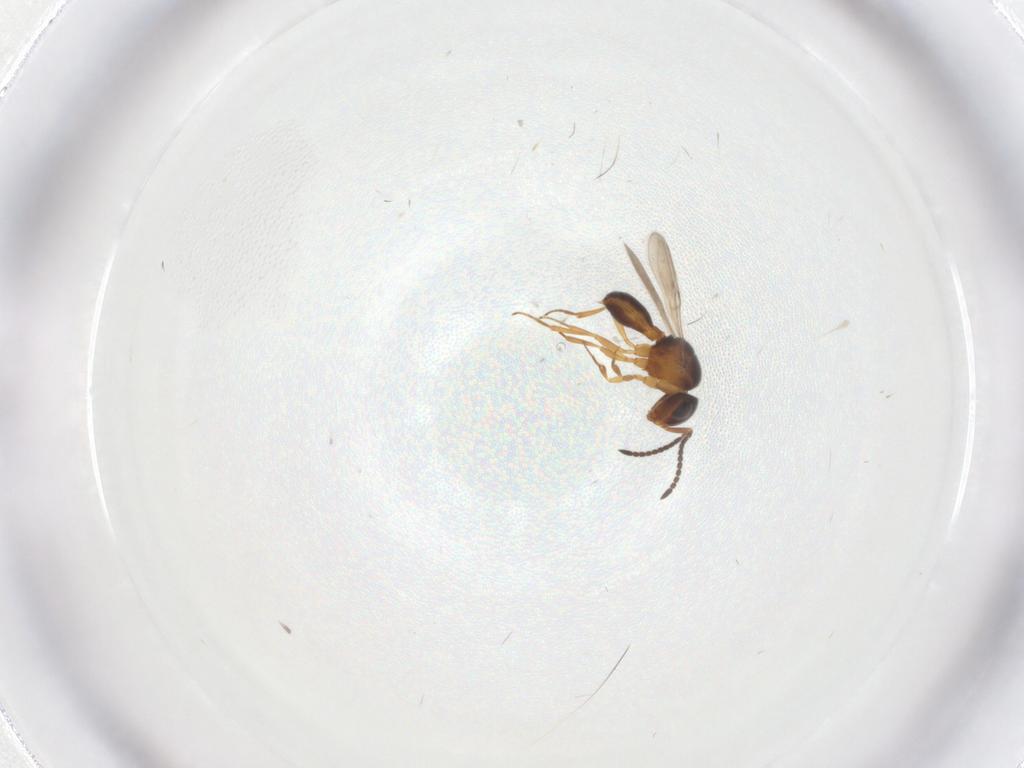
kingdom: Animalia
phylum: Arthropoda
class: Insecta
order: Hymenoptera
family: Scelionidae
